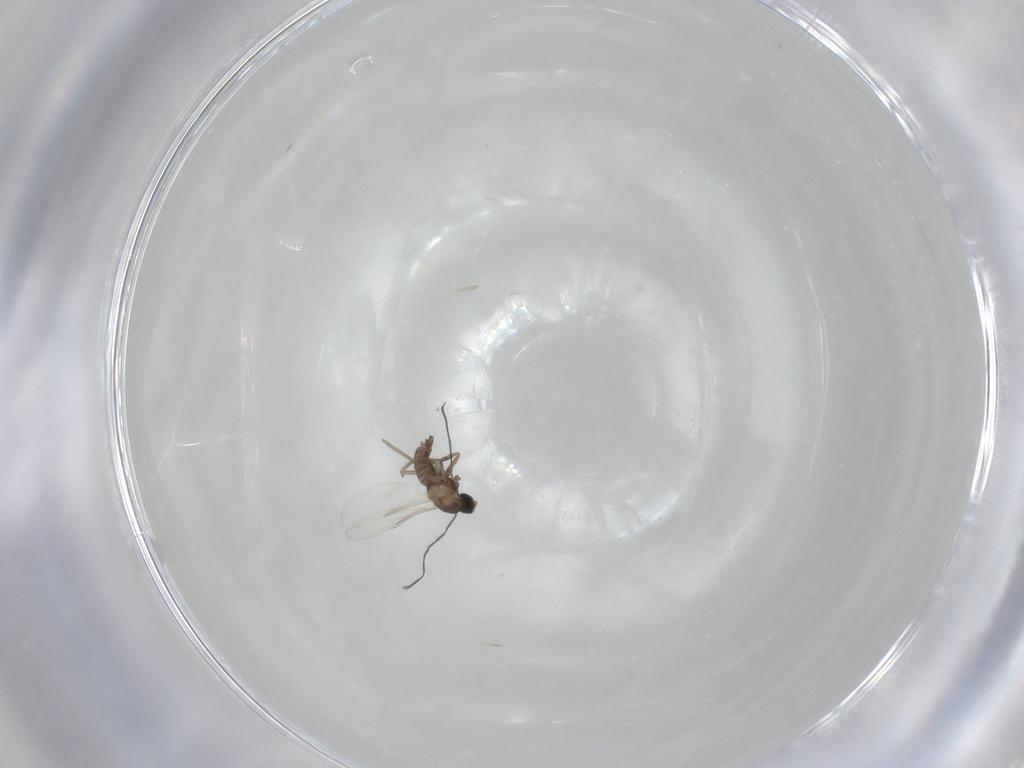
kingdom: Animalia
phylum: Arthropoda
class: Insecta
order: Diptera
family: Cecidomyiidae
